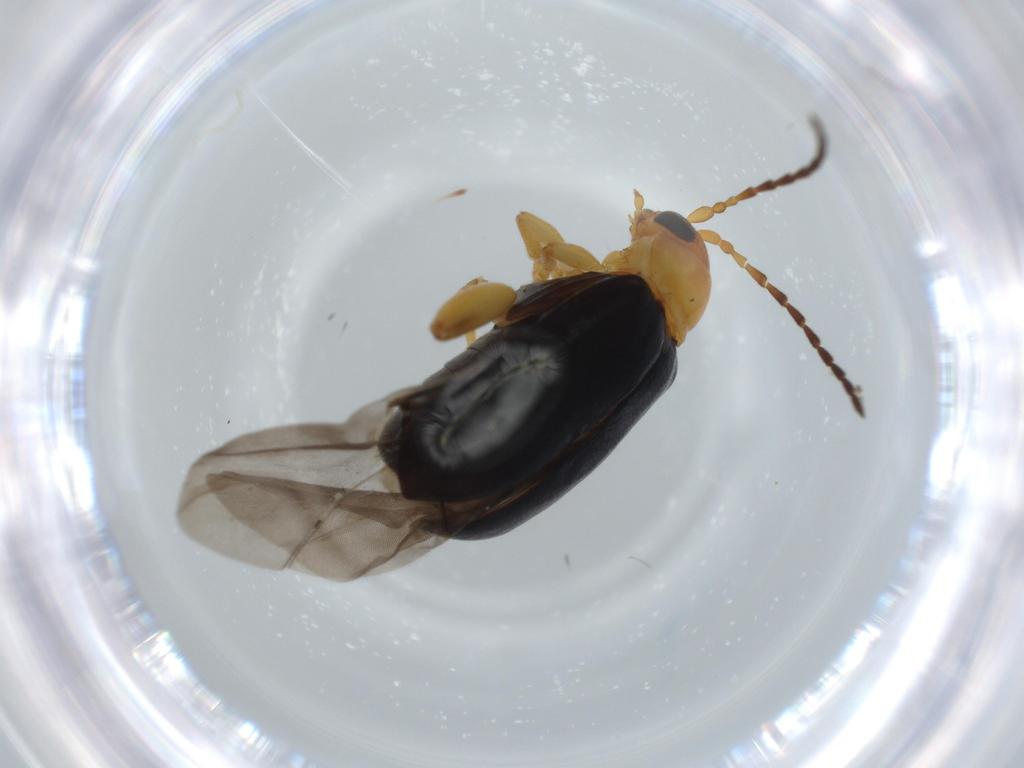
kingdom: Animalia
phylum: Arthropoda
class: Insecta
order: Coleoptera
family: Chrysomelidae
